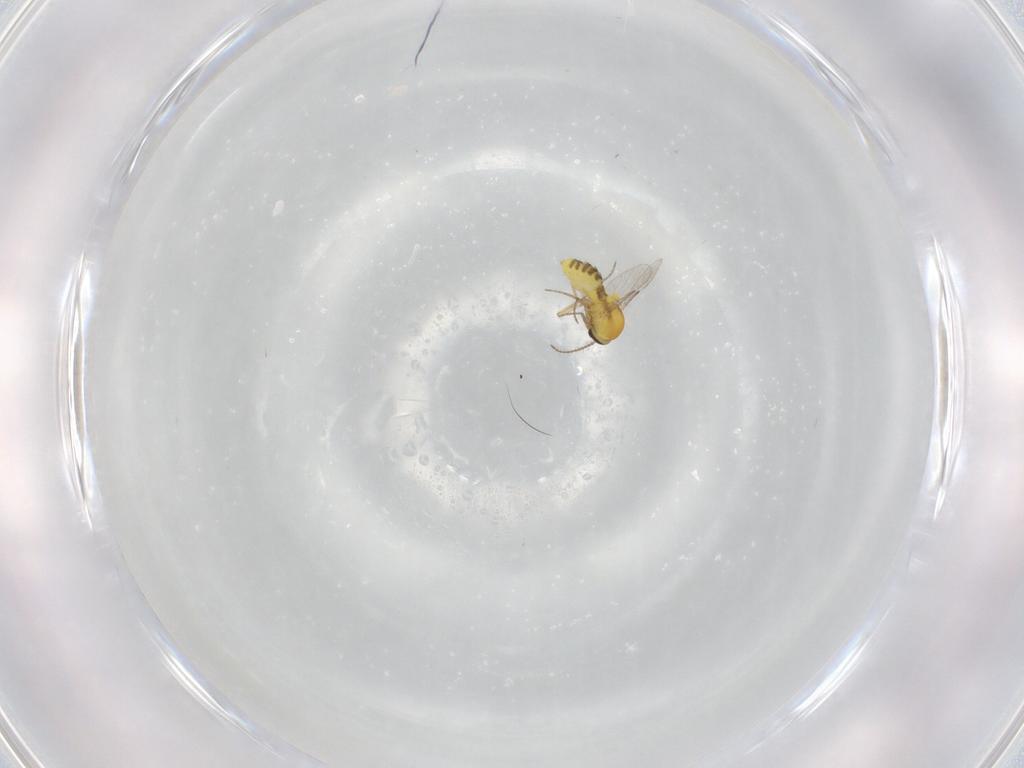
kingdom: Animalia
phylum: Arthropoda
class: Insecta
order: Diptera
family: Ceratopogonidae
